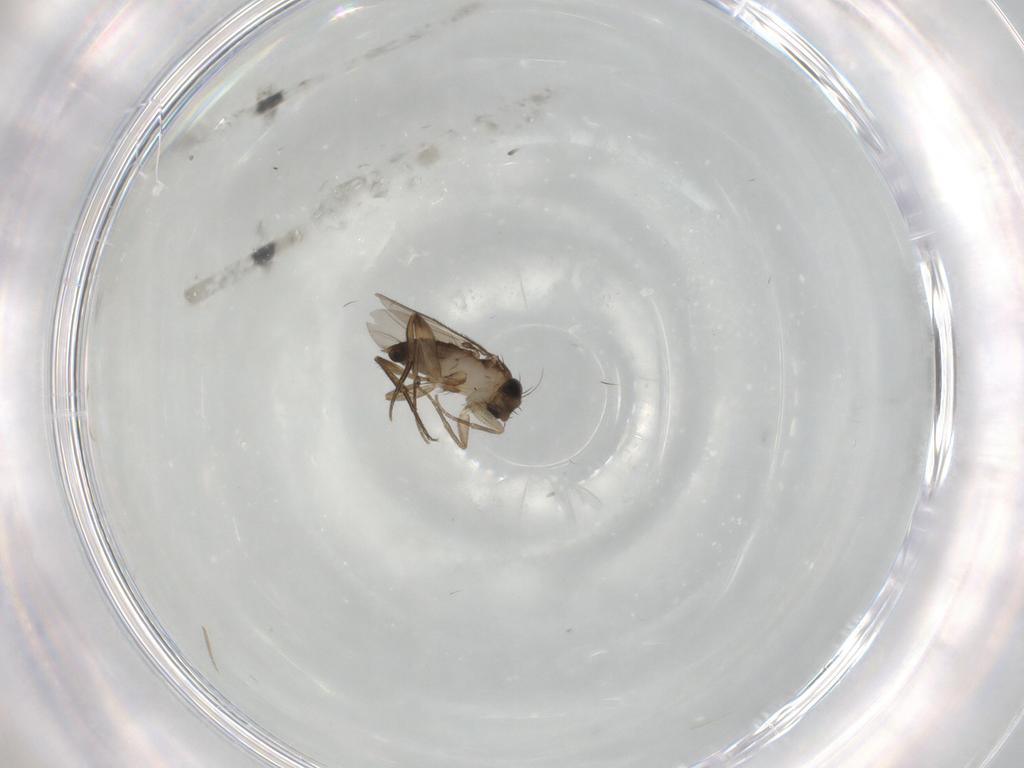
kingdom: Animalia
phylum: Arthropoda
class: Insecta
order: Diptera
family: Phoridae
